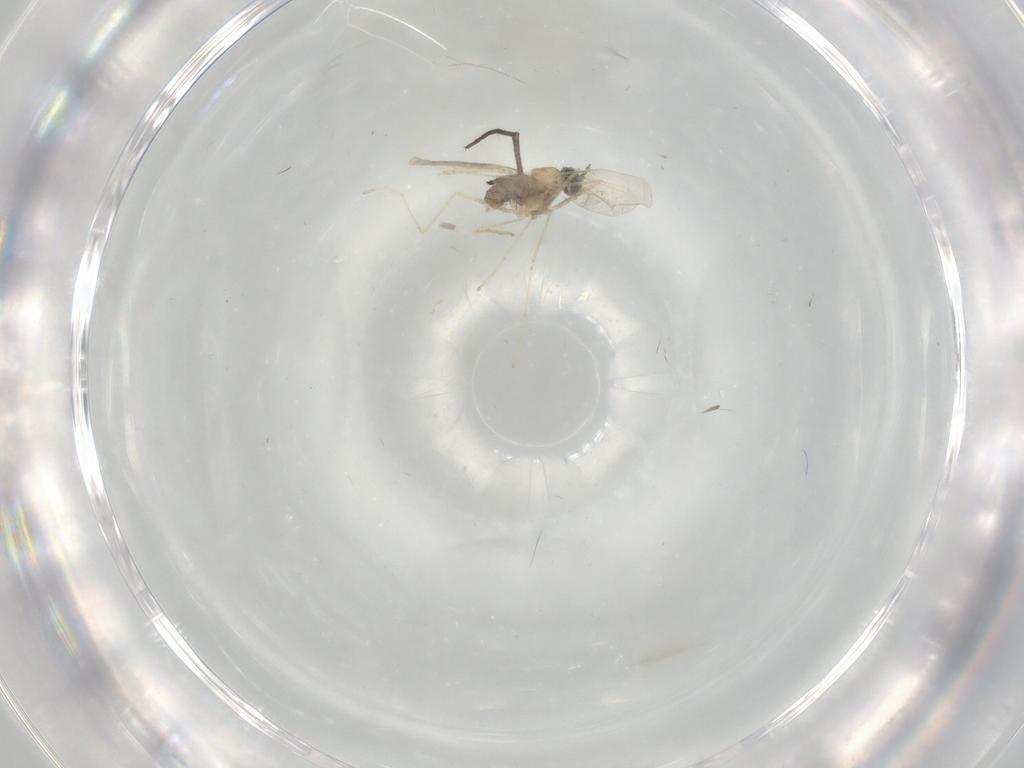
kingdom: Animalia
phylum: Arthropoda
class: Insecta
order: Diptera
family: Cecidomyiidae
